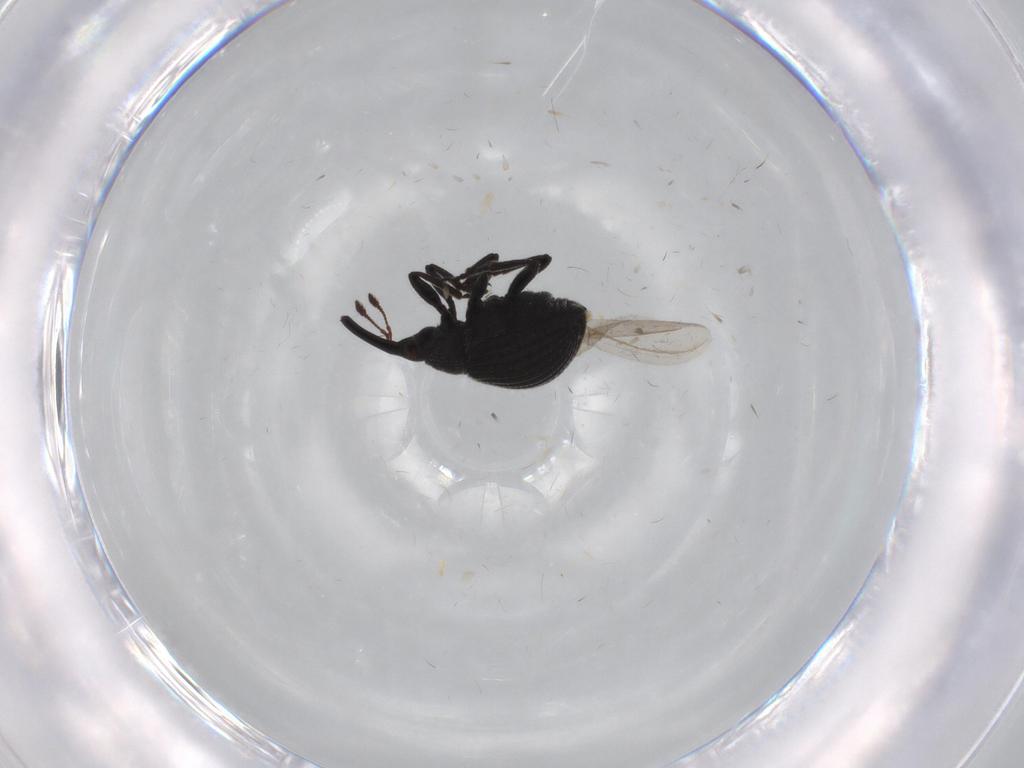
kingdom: Animalia
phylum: Arthropoda
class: Insecta
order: Coleoptera
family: Brentidae
